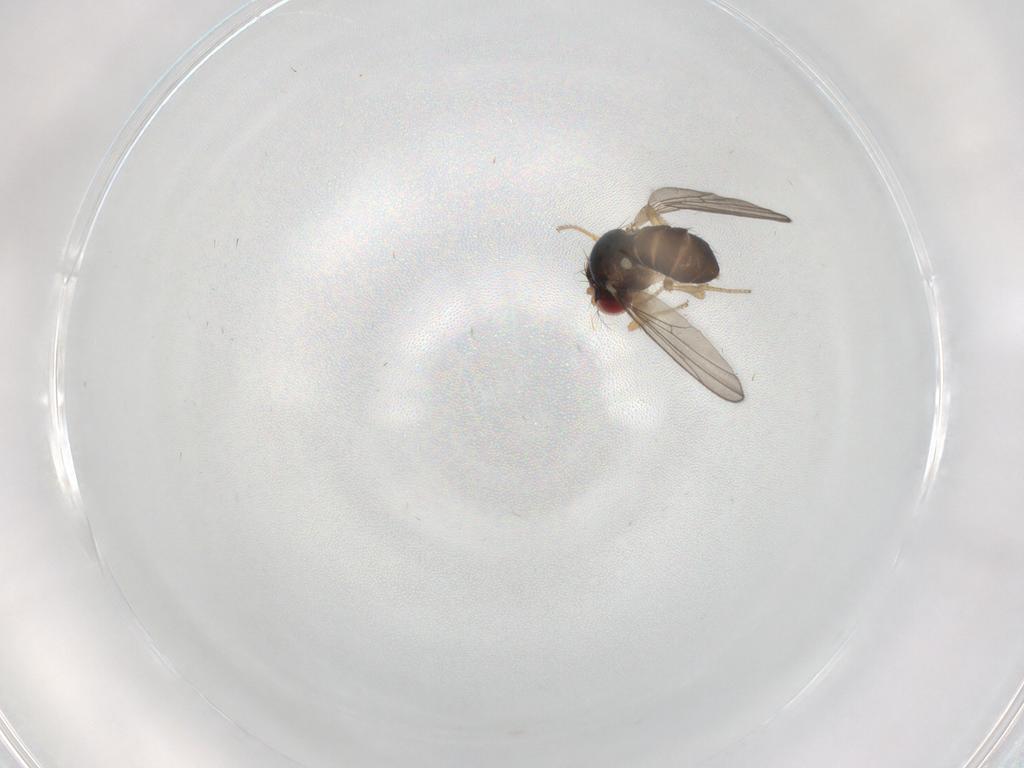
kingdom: Animalia
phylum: Arthropoda
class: Insecta
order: Diptera
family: Drosophilidae
